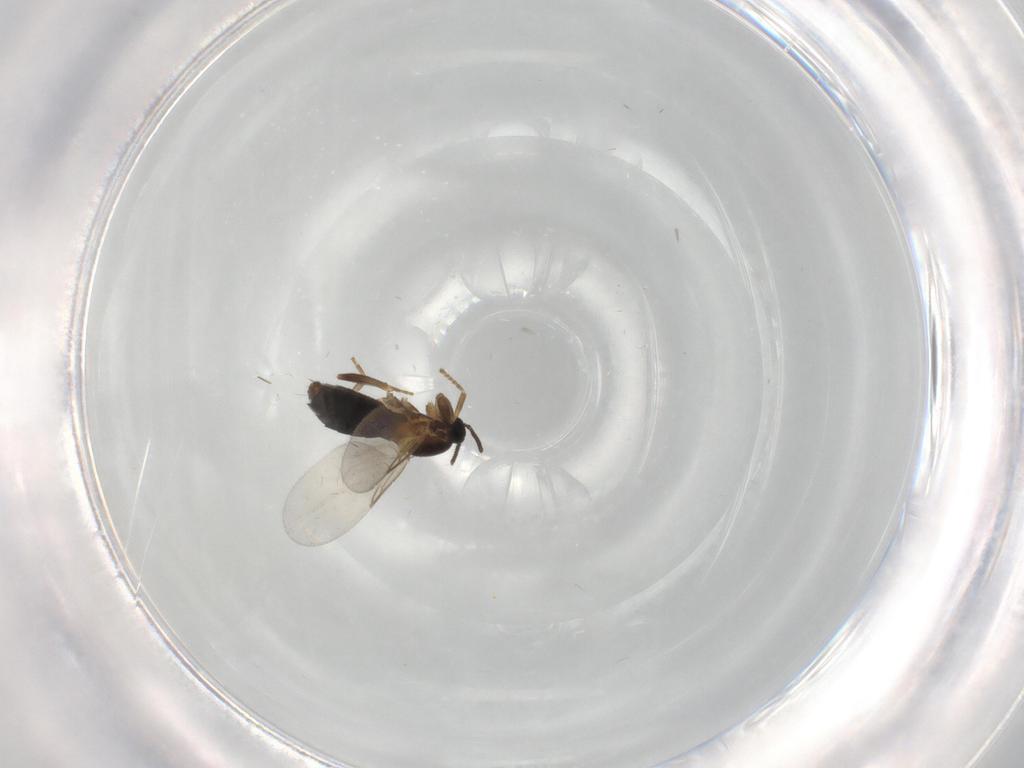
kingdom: Animalia
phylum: Arthropoda
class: Insecta
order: Diptera
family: Scatopsidae
